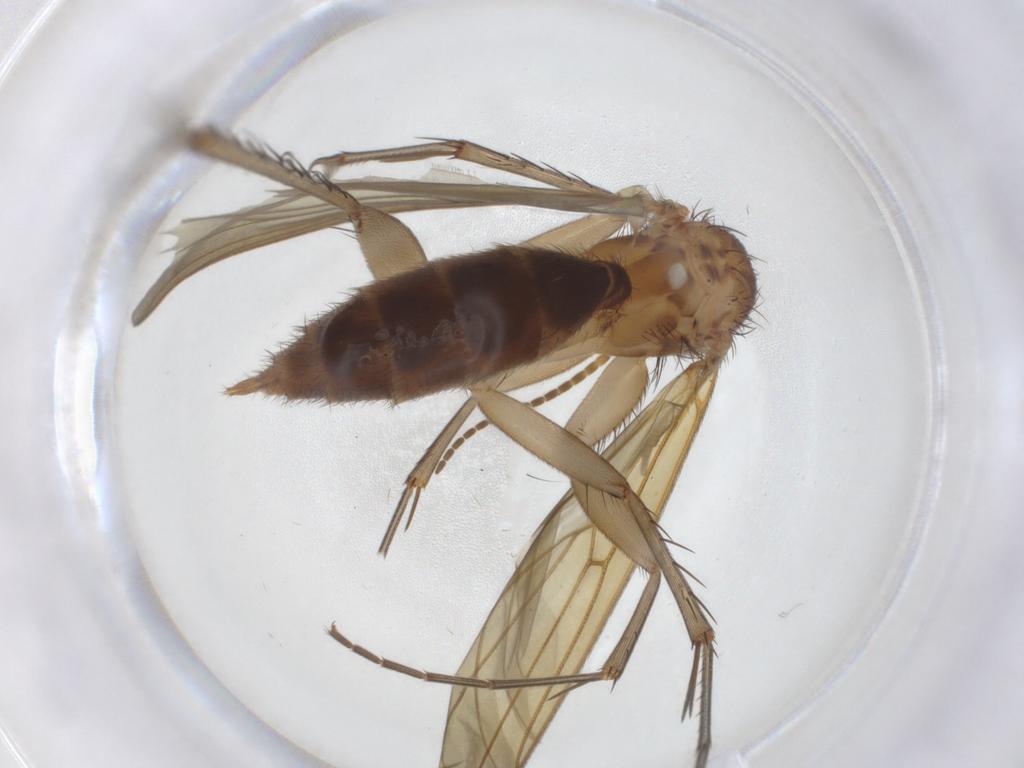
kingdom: Animalia
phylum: Arthropoda
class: Insecta
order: Diptera
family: Mycetophilidae
